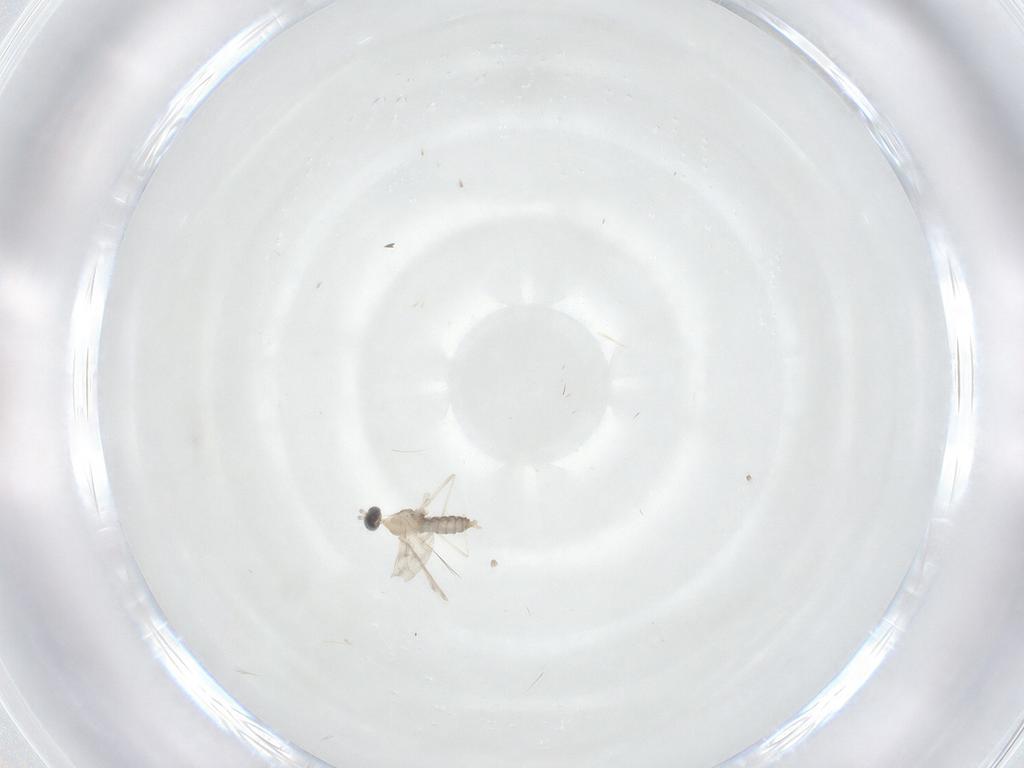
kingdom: Animalia
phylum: Arthropoda
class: Insecta
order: Diptera
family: Cecidomyiidae
